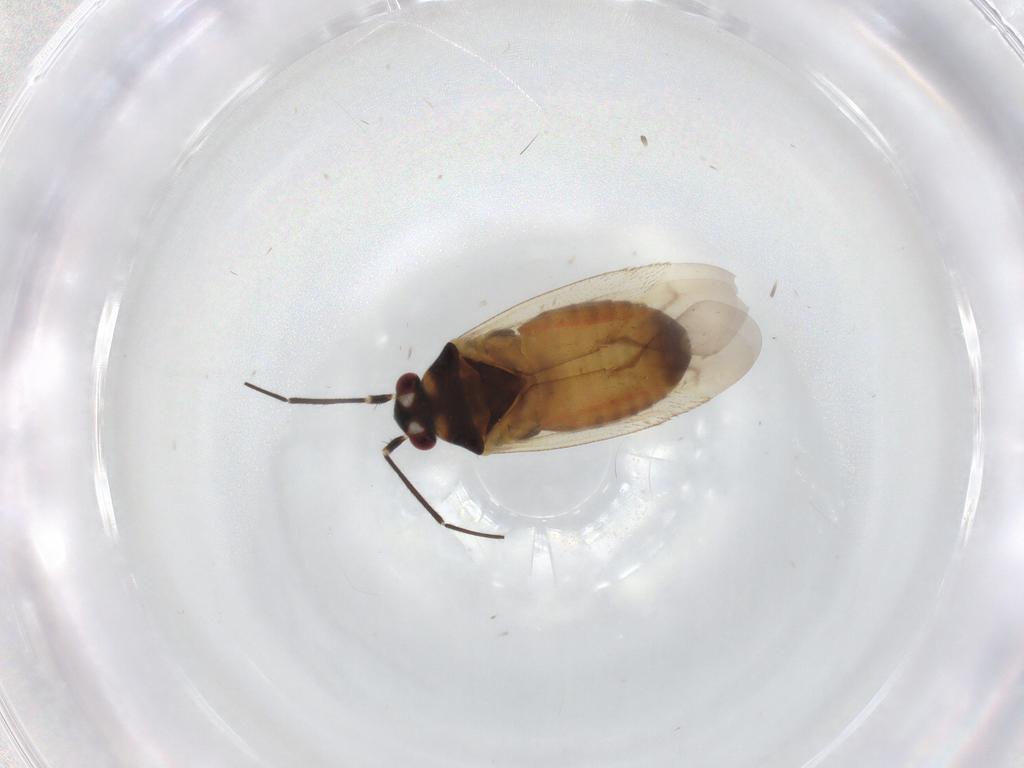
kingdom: Animalia
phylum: Arthropoda
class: Insecta
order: Hemiptera
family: Miridae
